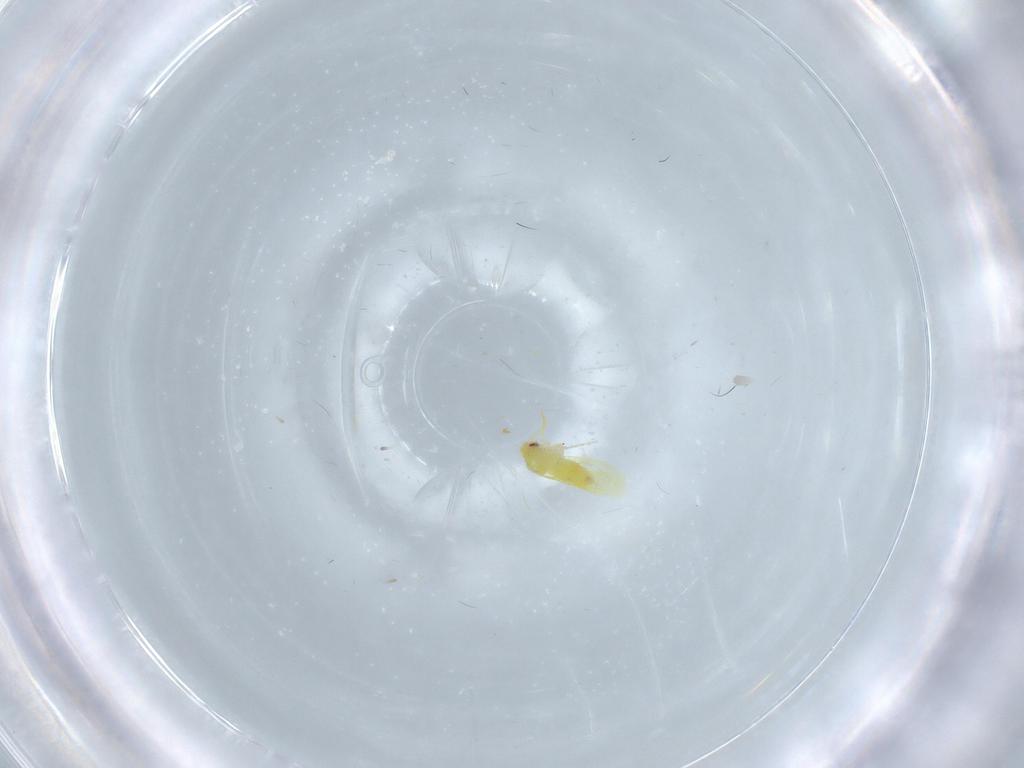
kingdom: Animalia
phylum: Arthropoda
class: Insecta
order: Hemiptera
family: Aleyrodidae
